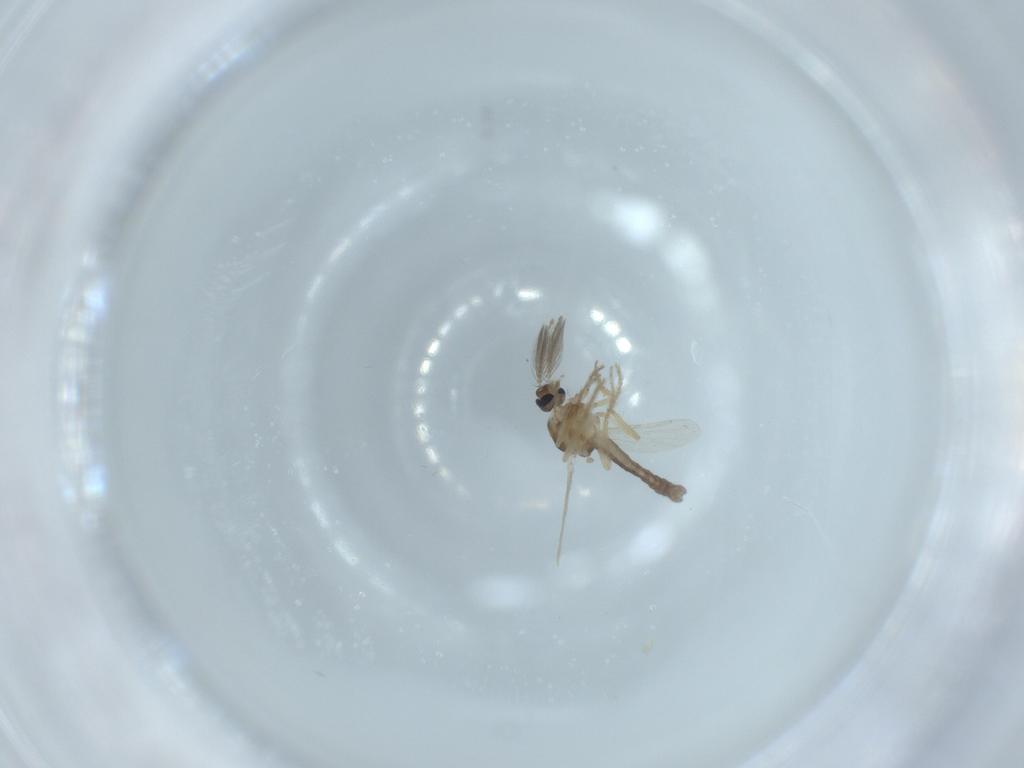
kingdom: Animalia
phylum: Arthropoda
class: Insecta
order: Diptera
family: Ceratopogonidae
